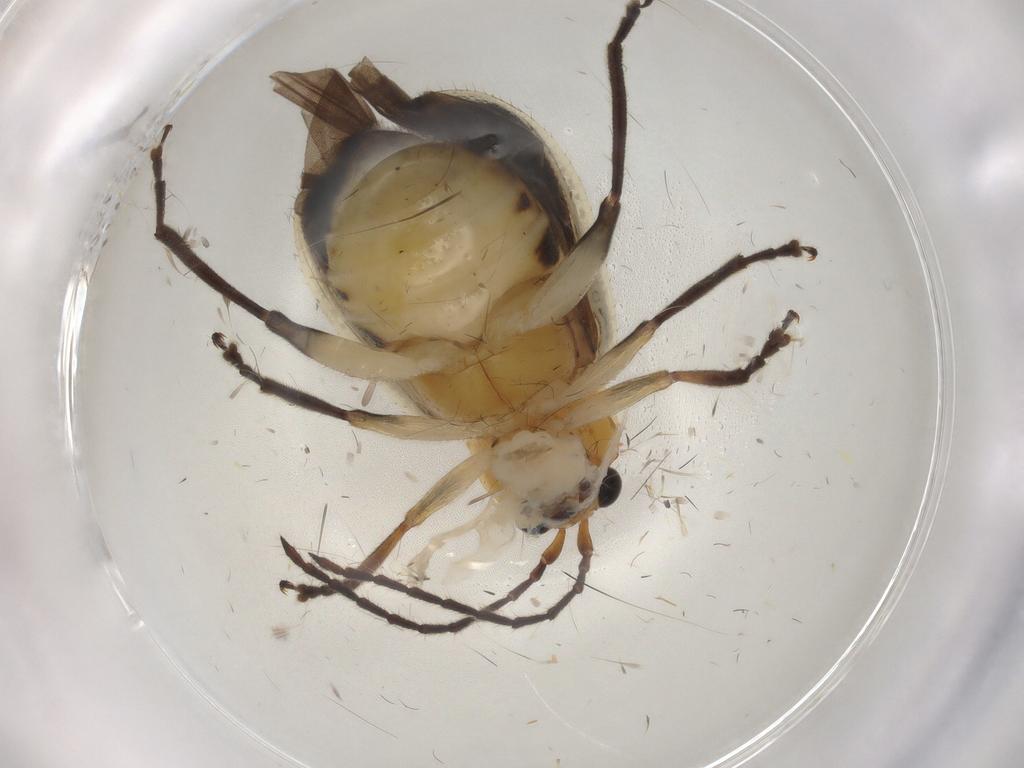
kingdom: Animalia
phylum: Arthropoda
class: Insecta
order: Coleoptera
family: Chrysomelidae
